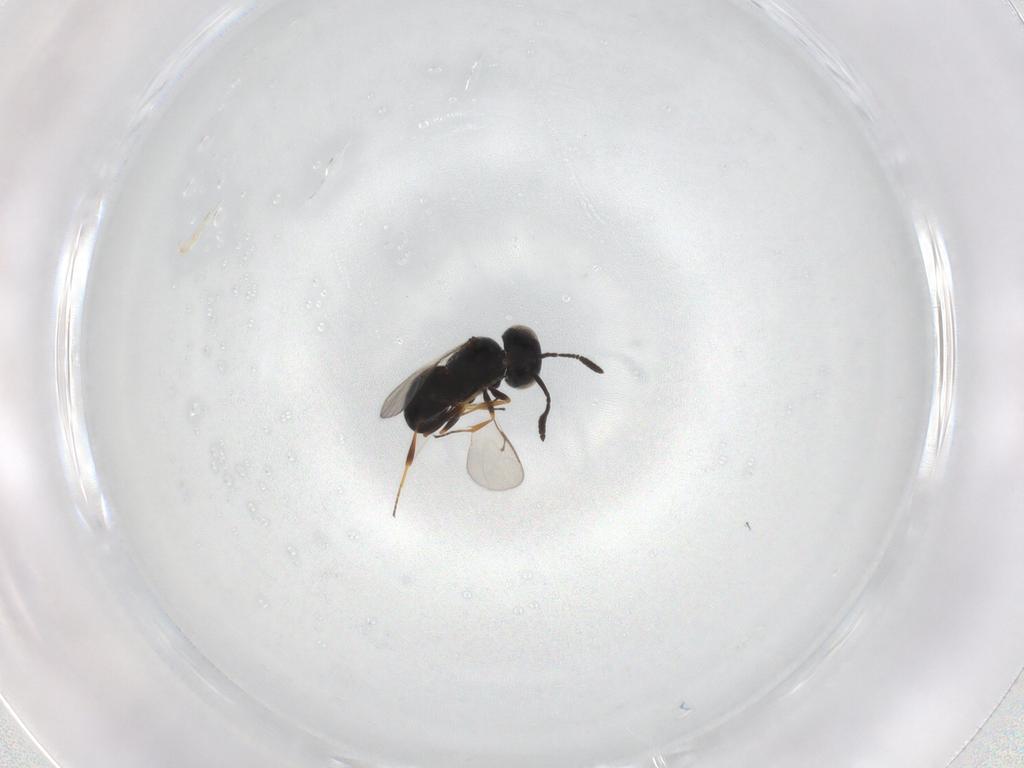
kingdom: Animalia
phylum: Arthropoda
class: Insecta
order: Hymenoptera
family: Scelionidae
